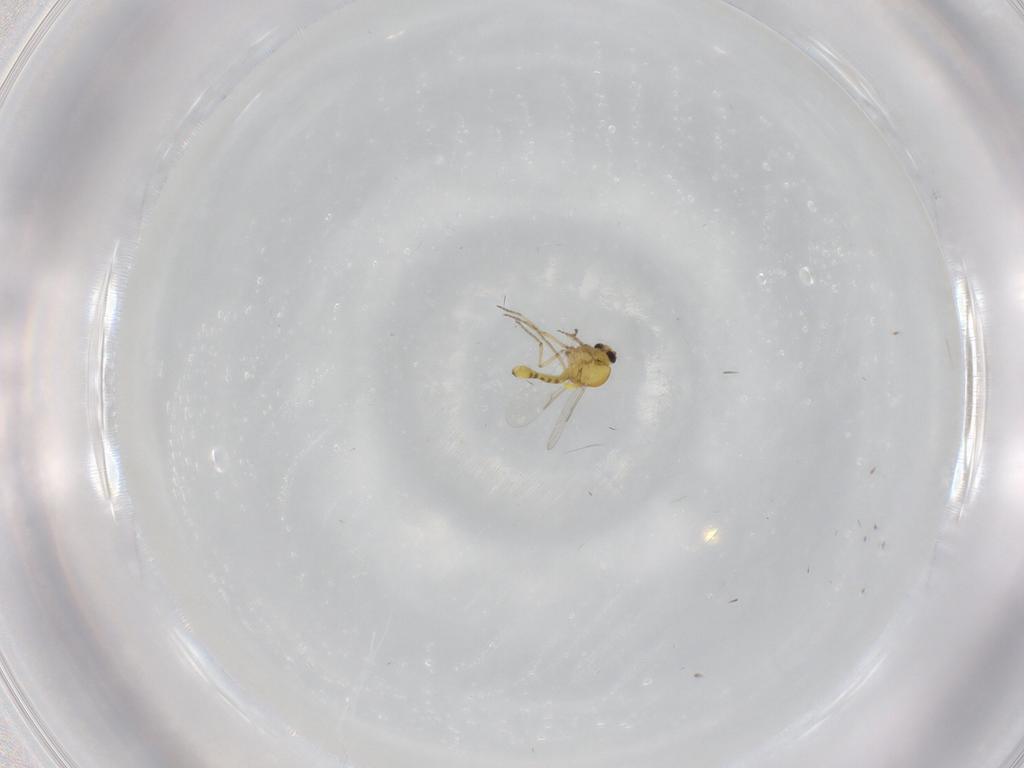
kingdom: Animalia
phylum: Arthropoda
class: Insecta
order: Diptera
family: Ceratopogonidae
